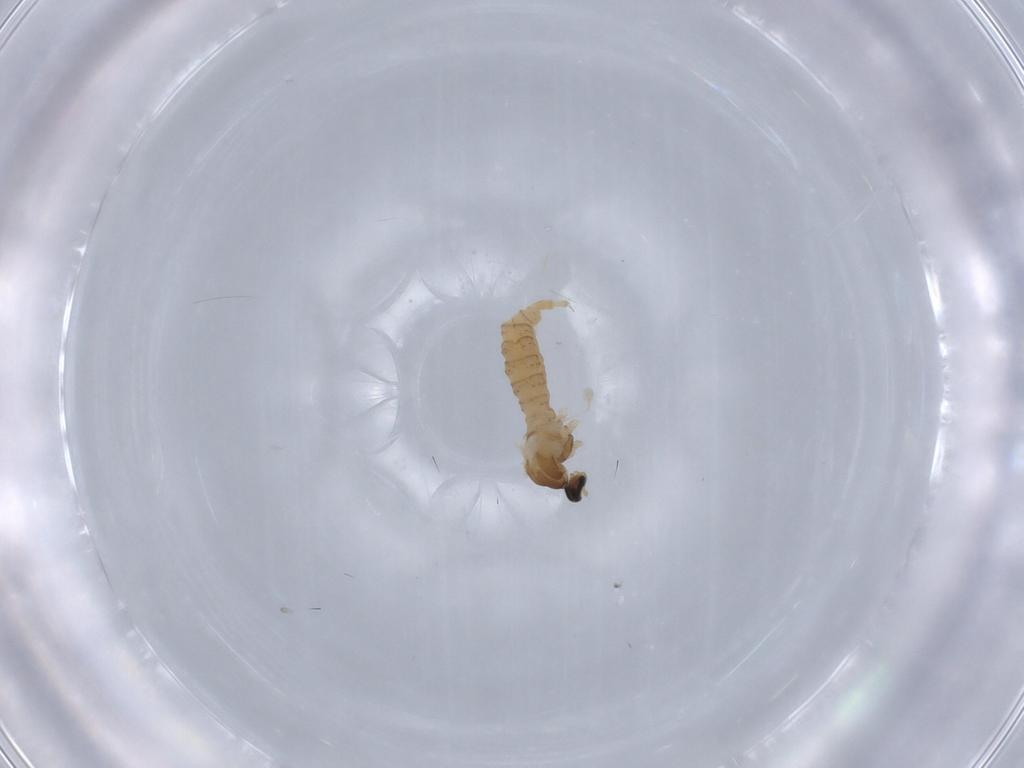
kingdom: Animalia
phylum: Arthropoda
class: Insecta
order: Diptera
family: Cecidomyiidae
